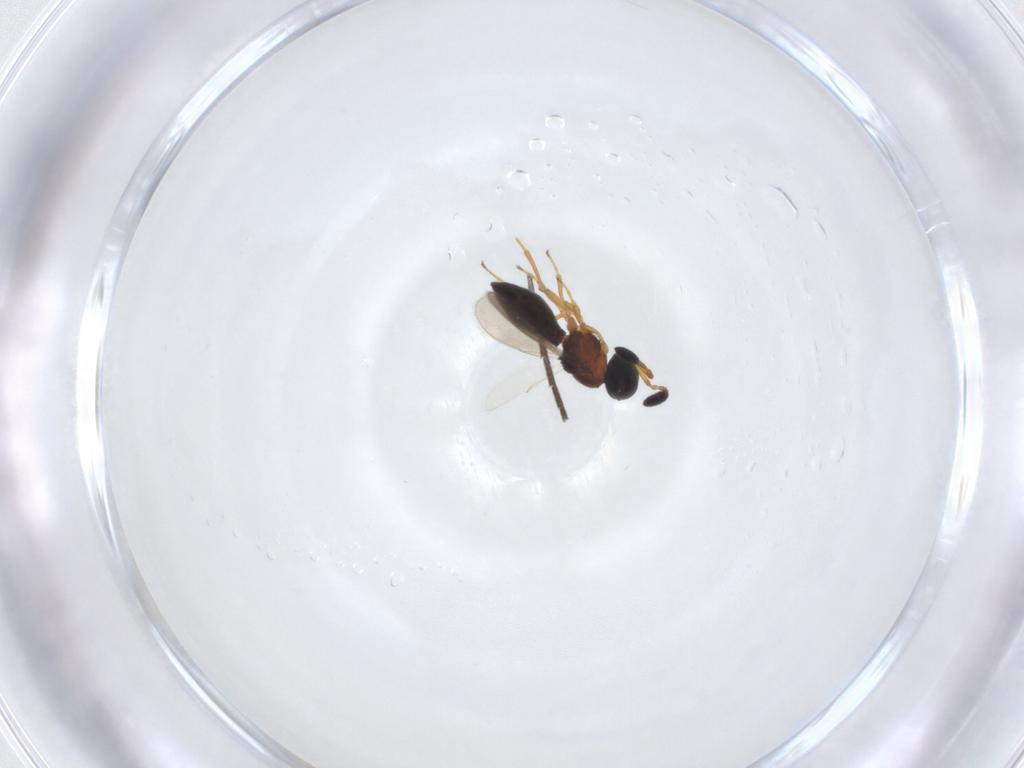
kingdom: Animalia
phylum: Arthropoda
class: Insecta
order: Hymenoptera
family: Scelionidae
